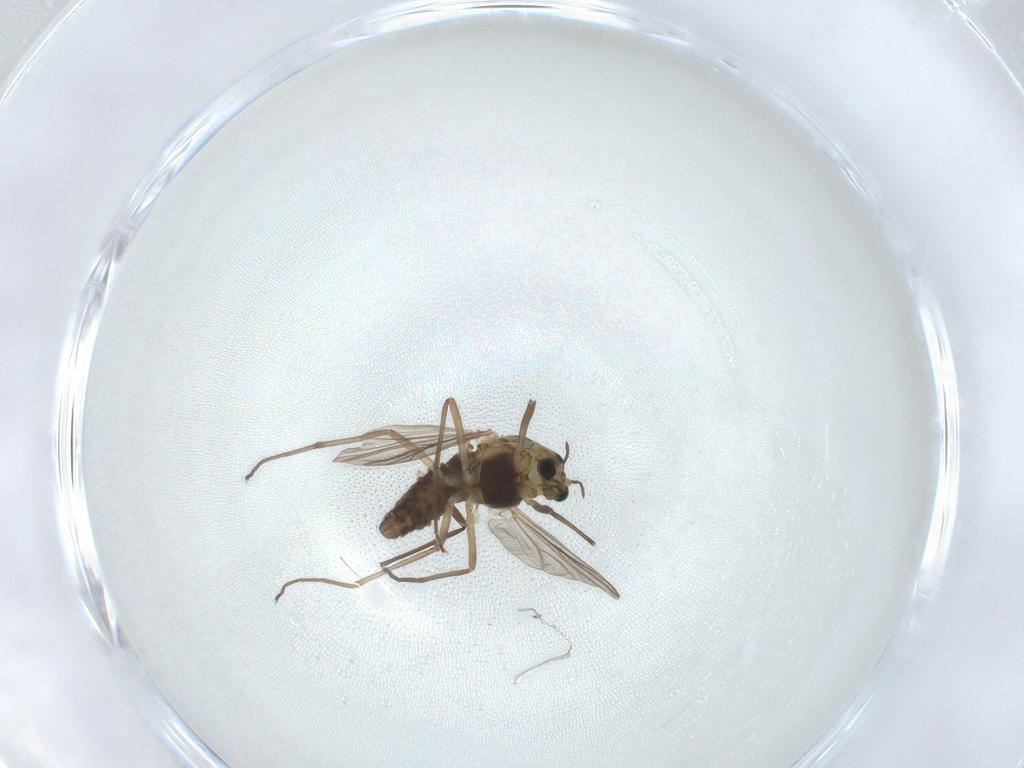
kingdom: Animalia
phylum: Arthropoda
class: Insecta
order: Diptera
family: Chironomidae
